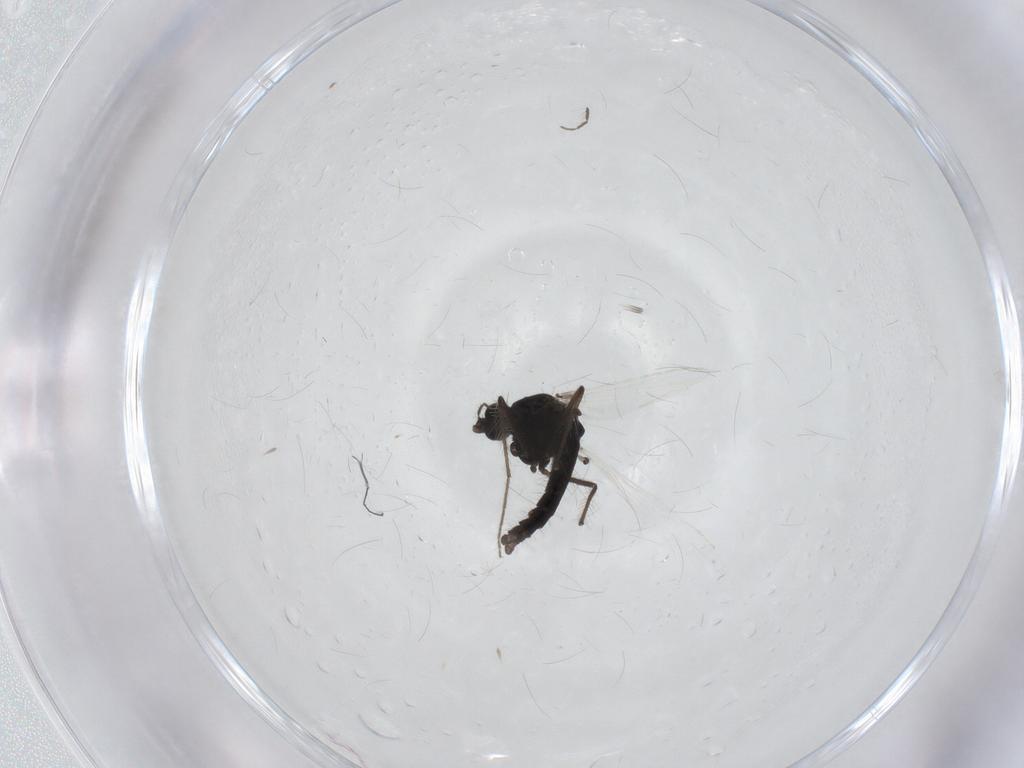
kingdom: Animalia
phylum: Arthropoda
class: Insecta
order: Diptera
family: Chironomidae
